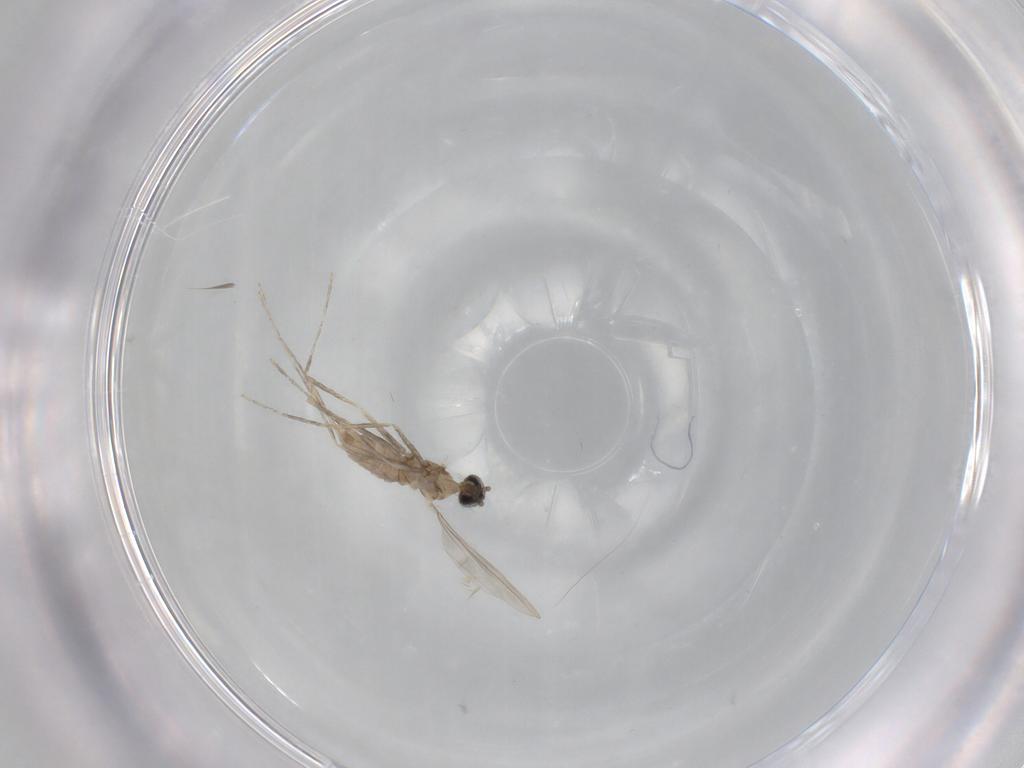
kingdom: Animalia
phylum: Arthropoda
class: Insecta
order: Diptera
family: Cecidomyiidae
